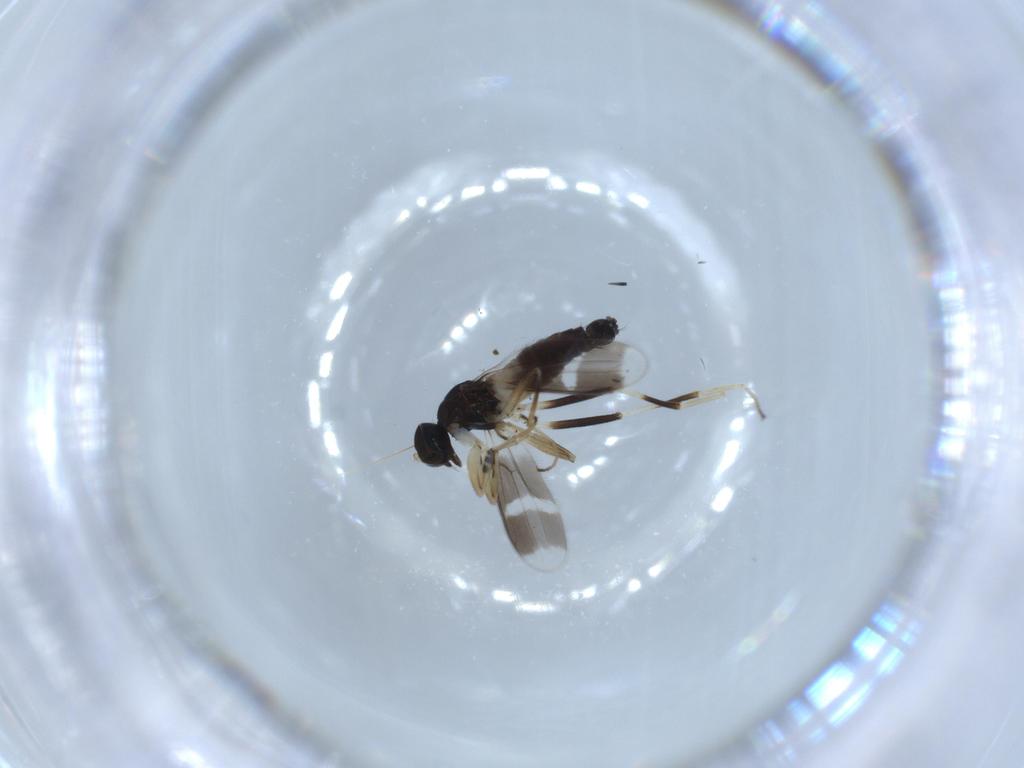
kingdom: Animalia
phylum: Arthropoda
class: Insecta
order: Diptera
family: Hybotidae
